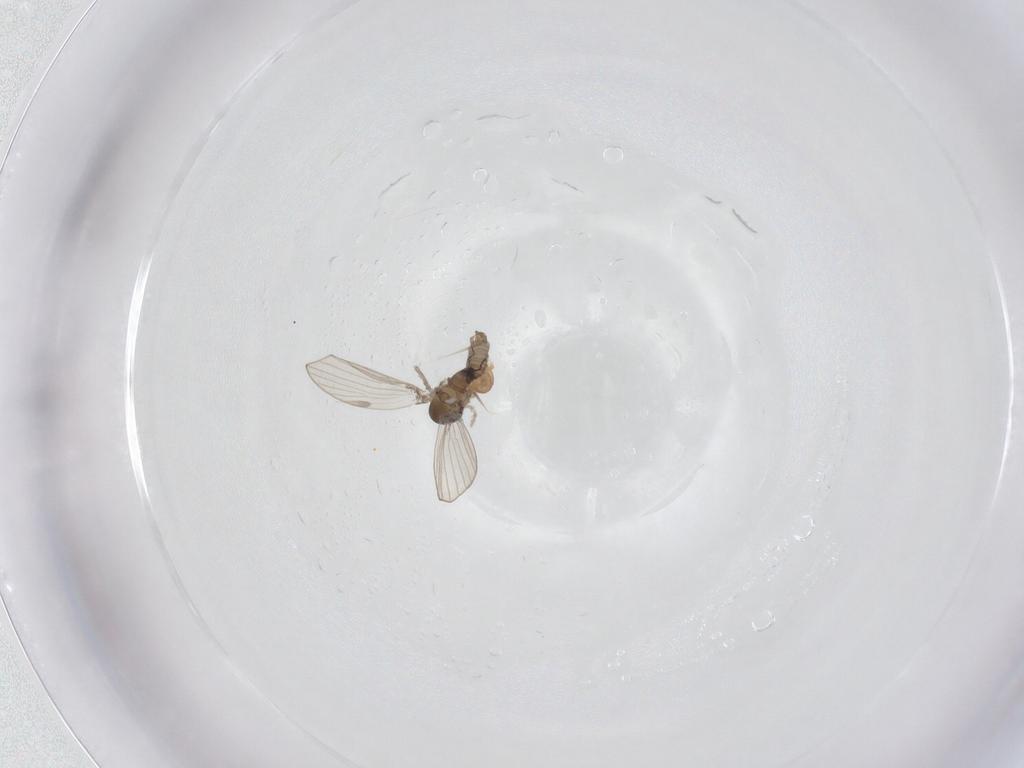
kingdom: Animalia
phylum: Arthropoda
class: Insecta
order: Diptera
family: Psychodidae
